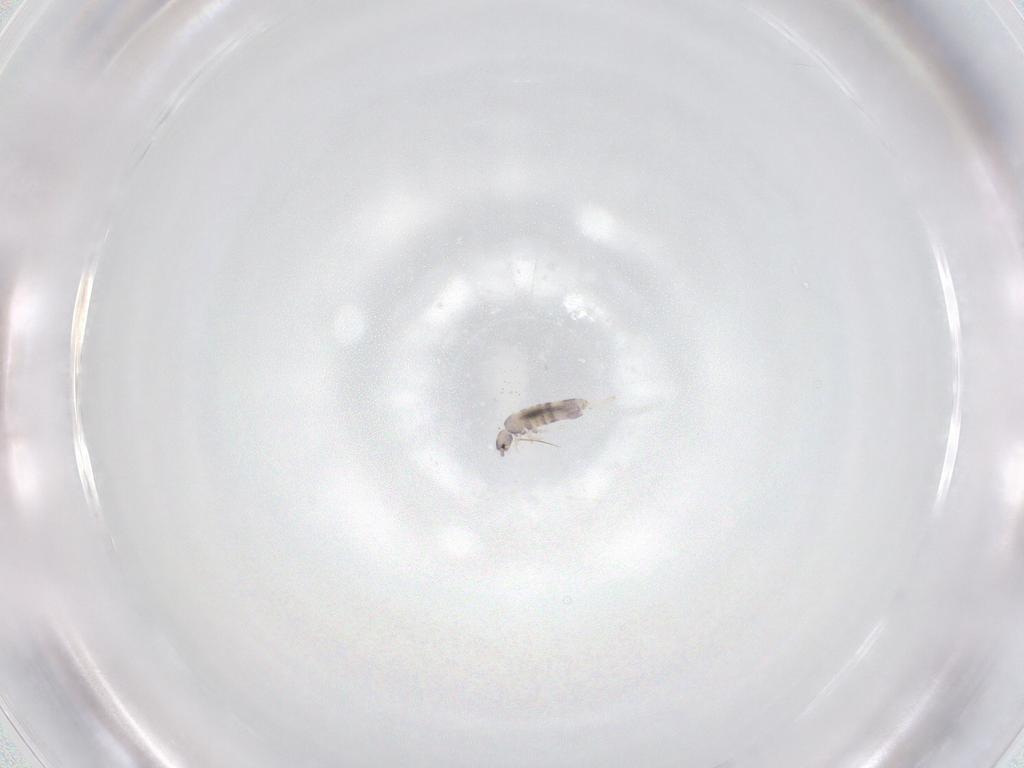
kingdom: Animalia
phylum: Arthropoda
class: Collembola
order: Entomobryomorpha
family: Entomobryidae
